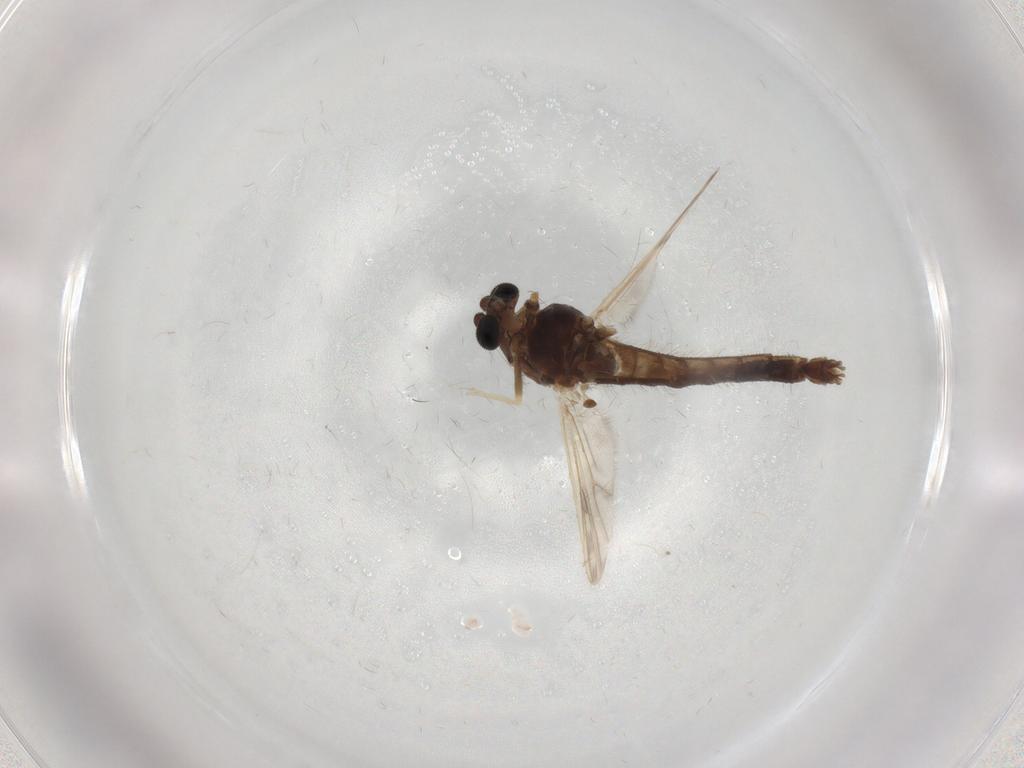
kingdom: Animalia
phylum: Arthropoda
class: Insecta
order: Diptera
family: Chironomidae
